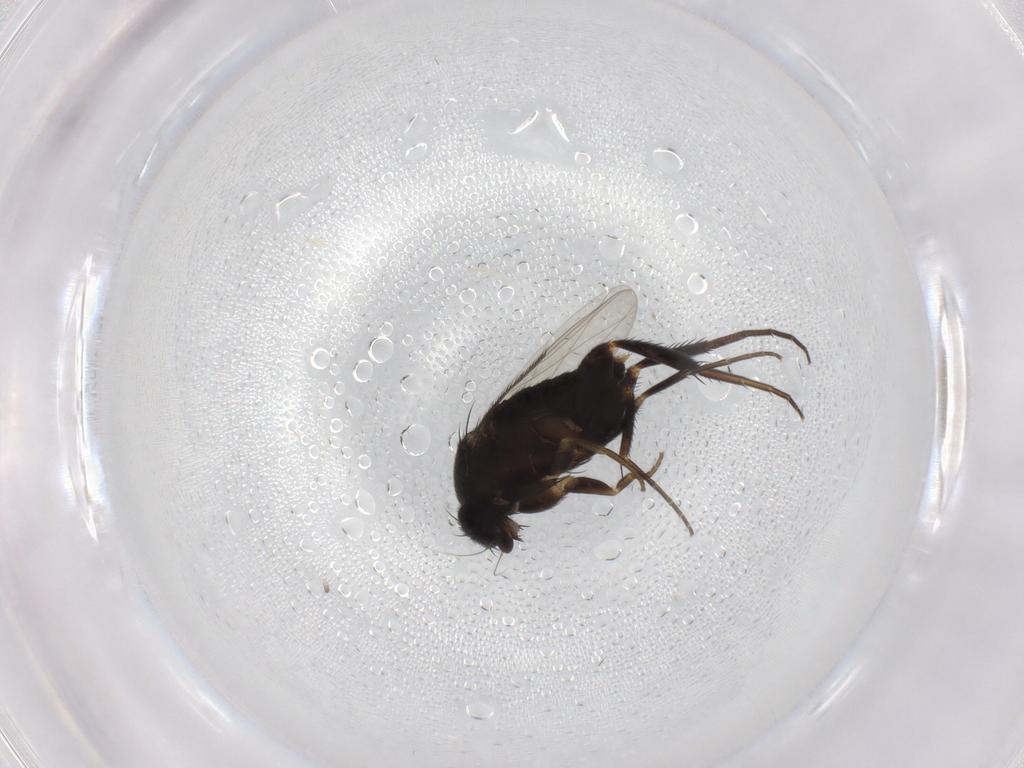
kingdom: Animalia
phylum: Arthropoda
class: Insecta
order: Diptera
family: Phoridae
